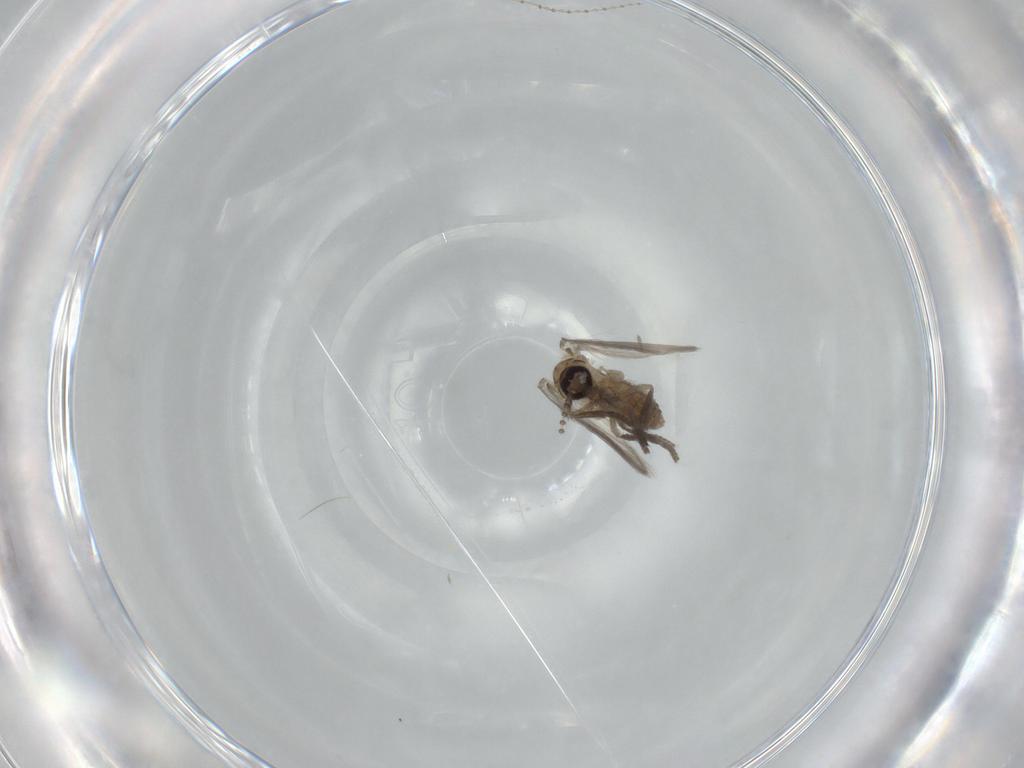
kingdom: Animalia
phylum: Arthropoda
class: Insecta
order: Diptera
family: Psychodidae
